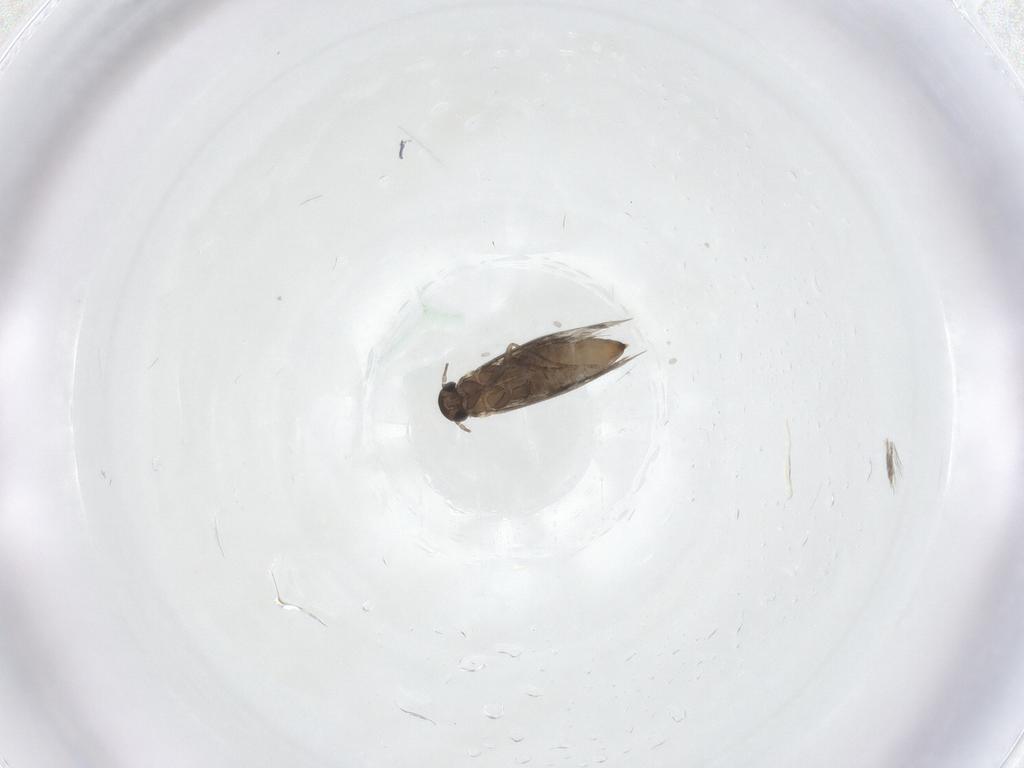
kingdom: Animalia
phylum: Arthropoda
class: Insecta
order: Lepidoptera
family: Heliozelidae
